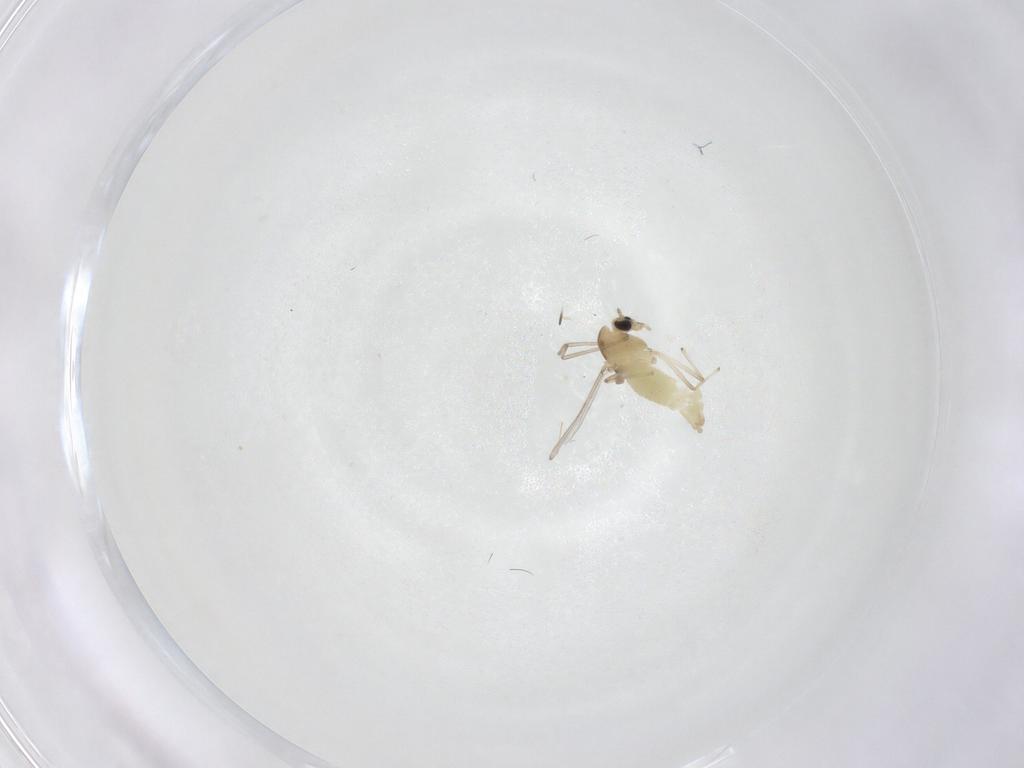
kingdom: Animalia
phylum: Arthropoda
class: Insecta
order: Diptera
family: Chironomidae
